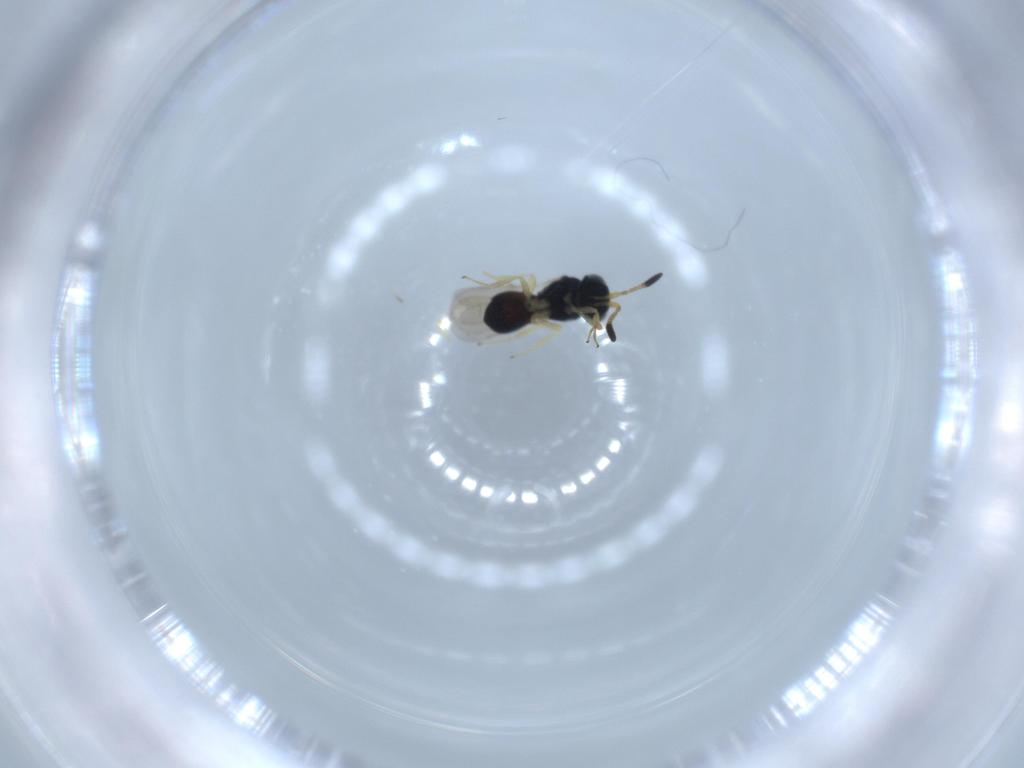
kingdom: Animalia
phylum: Arthropoda
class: Insecta
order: Hymenoptera
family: Scelionidae
